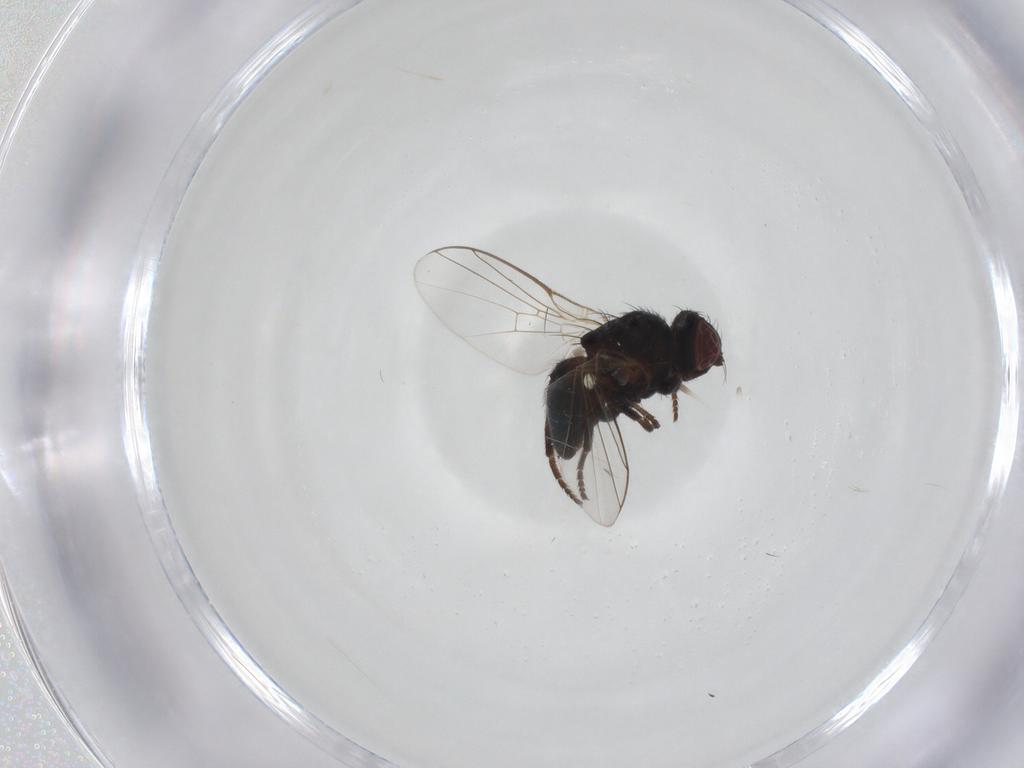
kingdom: Animalia
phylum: Arthropoda
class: Insecta
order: Diptera
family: Agromyzidae
